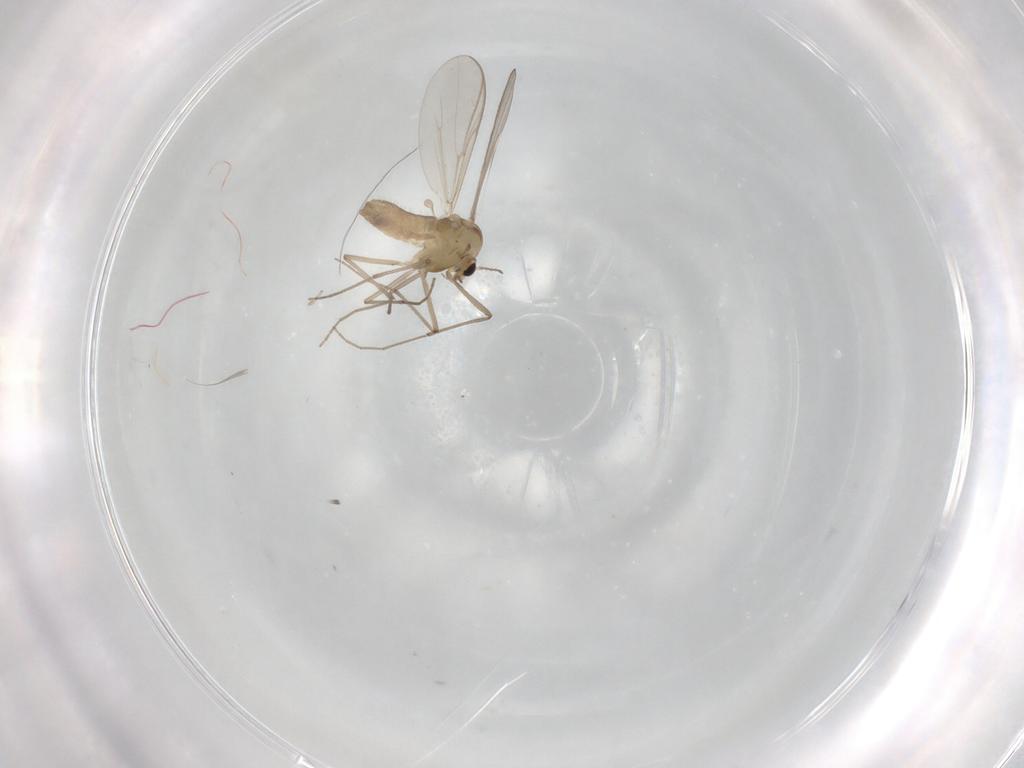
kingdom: Animalia
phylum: Arthropoda
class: Insecta
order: Diptera
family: Chironomidae
